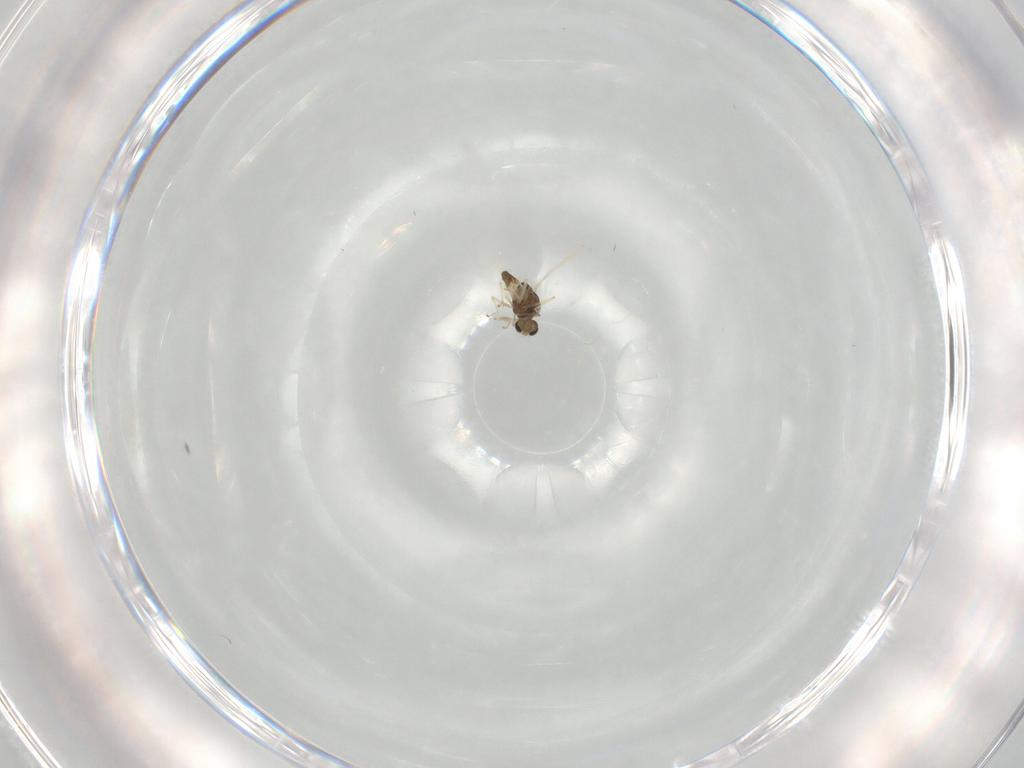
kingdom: Animalia
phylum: Arthropoda
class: Insecta
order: Diptera
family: Chironomidae
